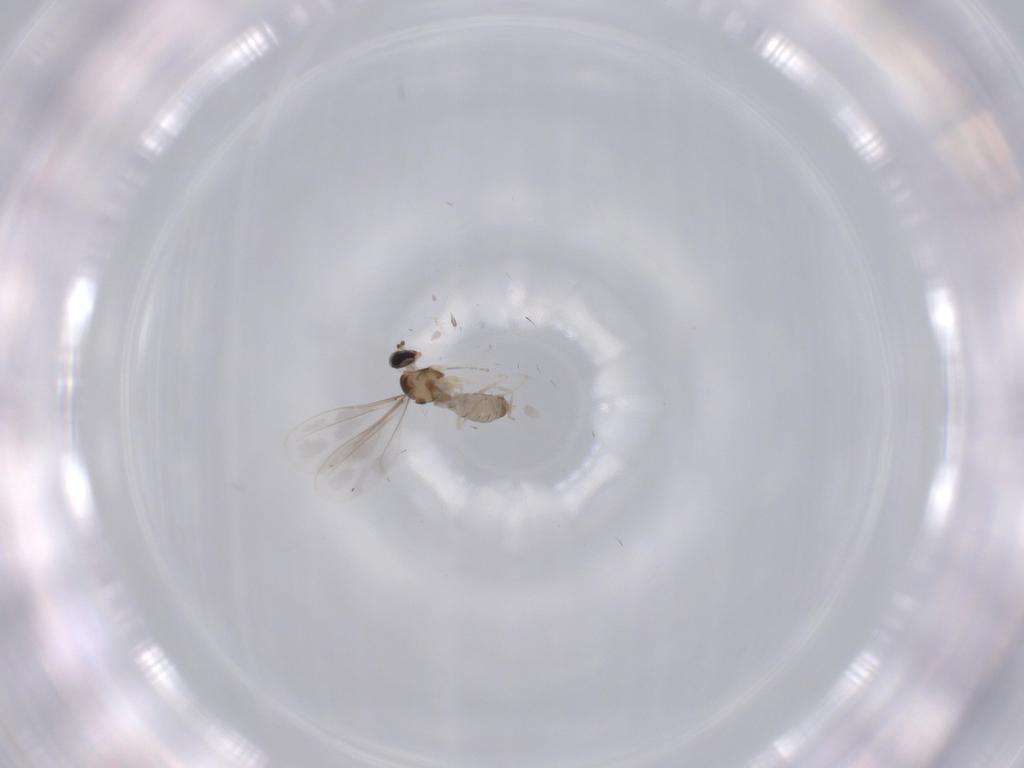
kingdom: Animalia
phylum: Arthropoda
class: Insecta
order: Diptera
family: Cecidomyiidae
